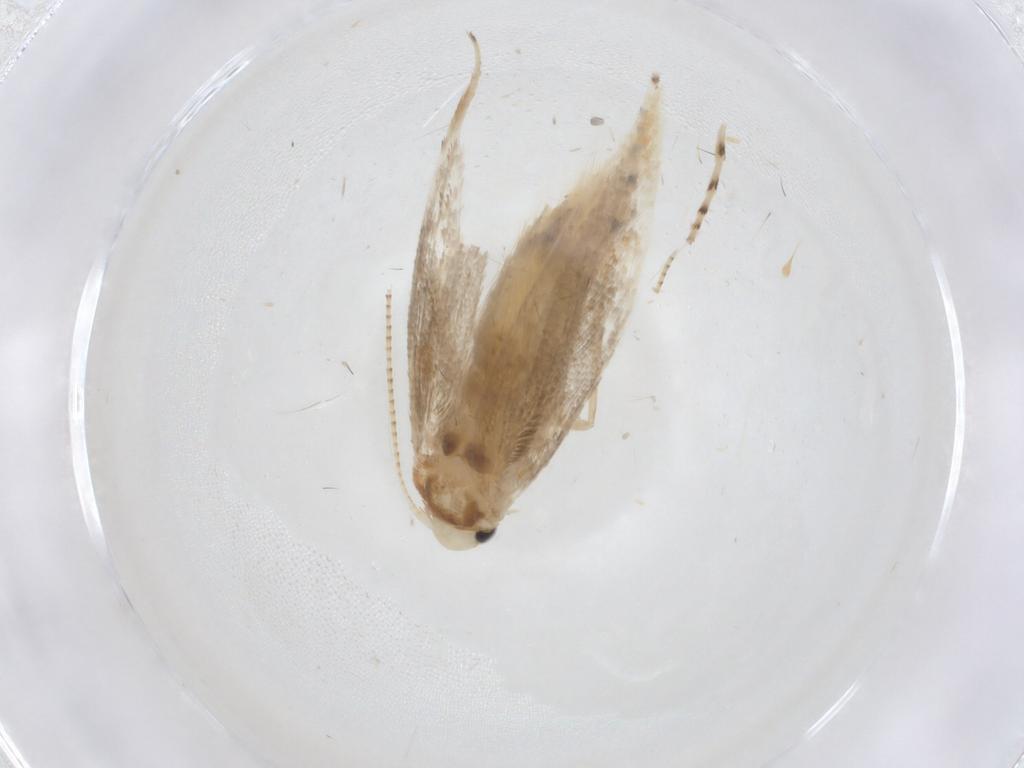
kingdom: Animalia
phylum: Arthropoda
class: Insecta
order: Lepidoptera
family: Gracillariidae
